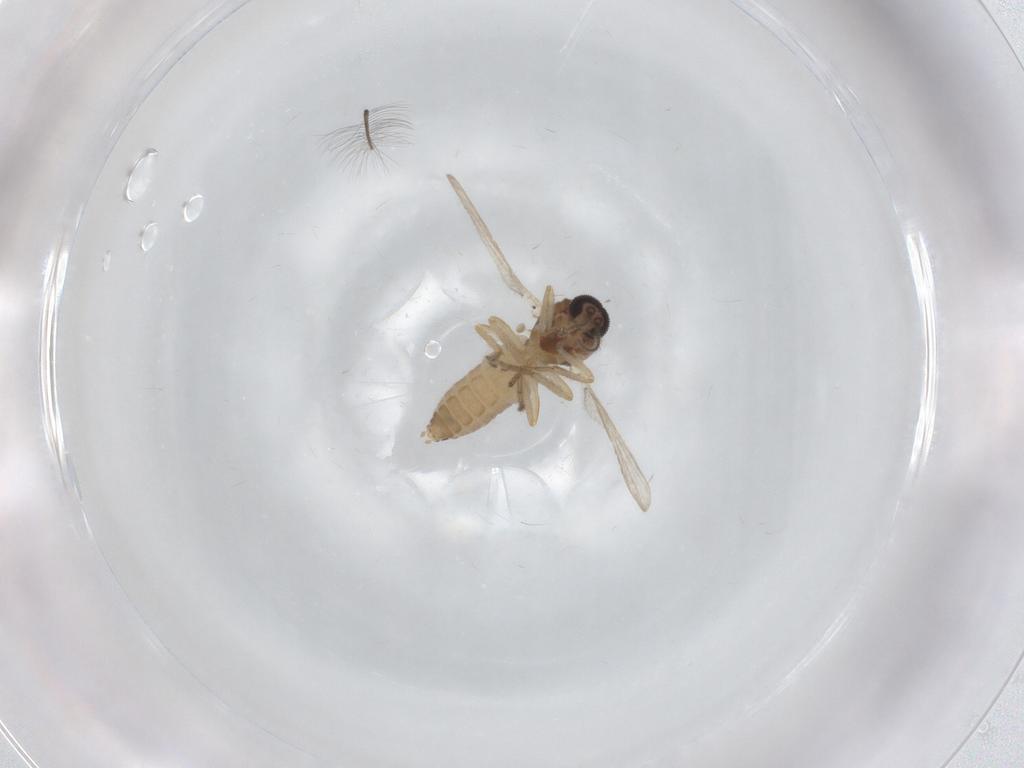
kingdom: Animalia
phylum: Arthropoda
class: Insecta
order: Diptera
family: Ceratopogonidae
